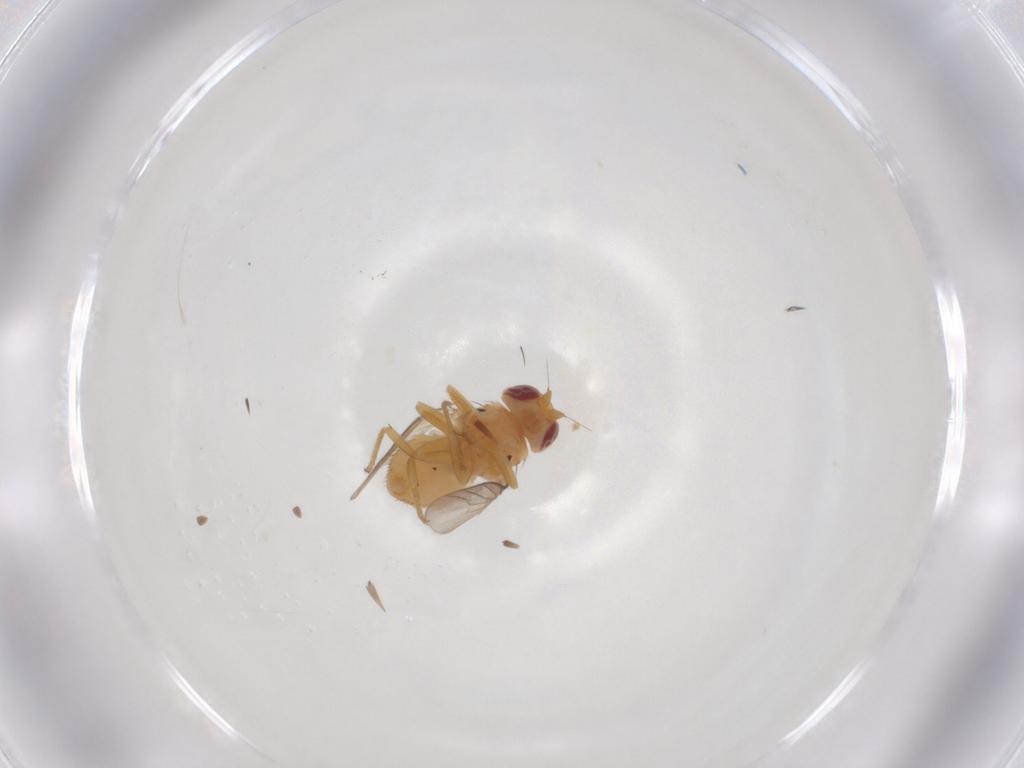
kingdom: Animalia
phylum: Arthropoda
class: Insecta
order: Diptera
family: Chloropidae
